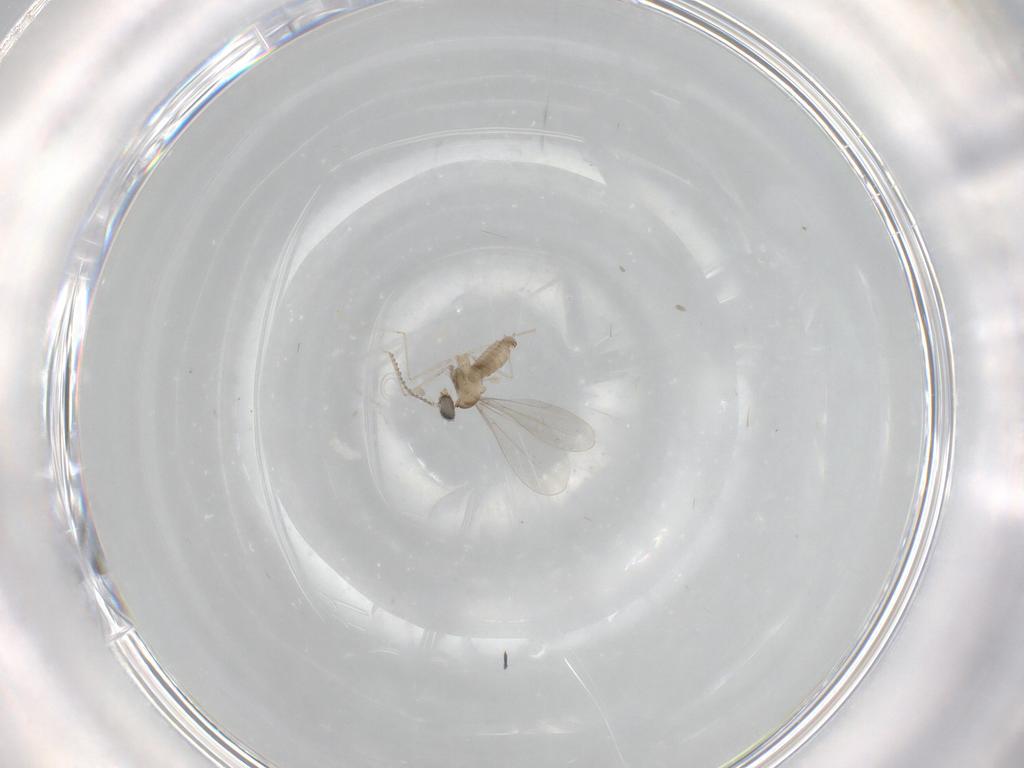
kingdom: Animalia
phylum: Arthropoda
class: Insecta
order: Diptera
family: Cecidomyiidae
